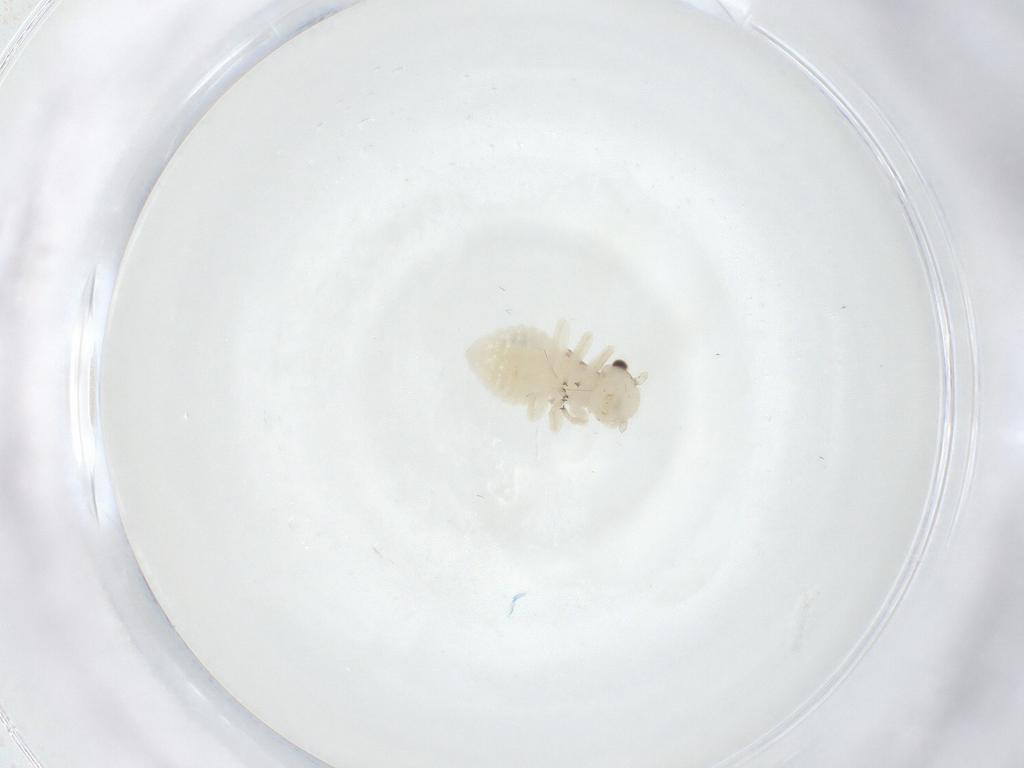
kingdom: Animalia
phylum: Arthropoda
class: Insecta
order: Psocodea
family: Amphipsocidae
